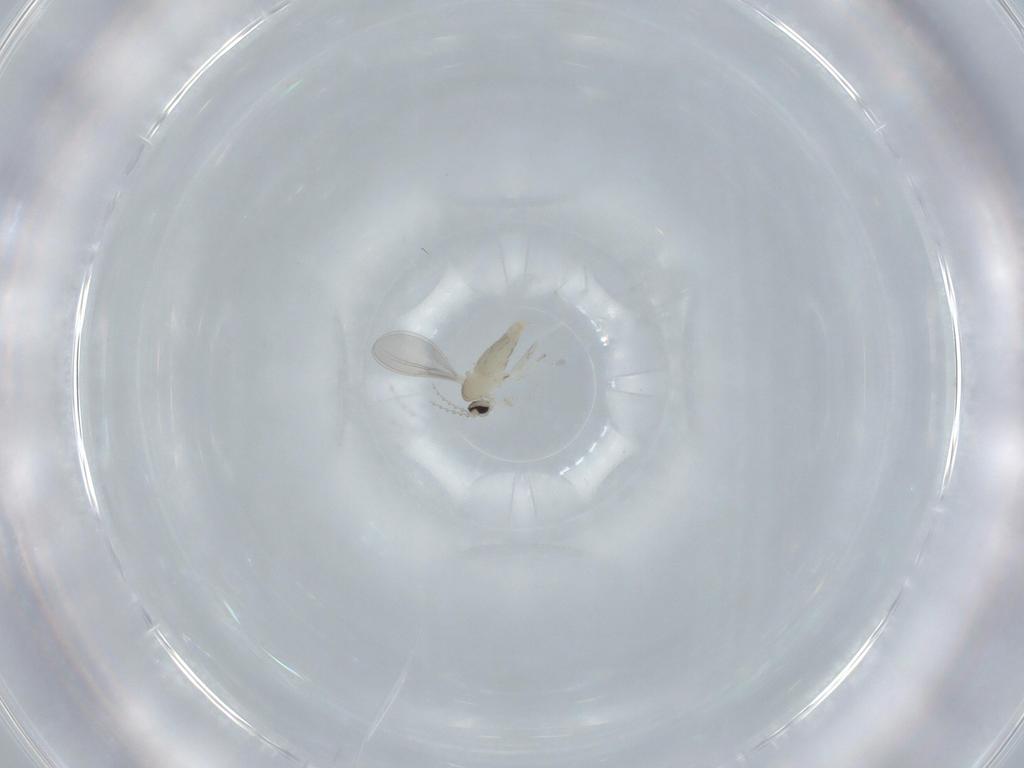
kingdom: Animalia
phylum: Arthropoda
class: Insecta
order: Diptera
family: Cecidomyiidae
